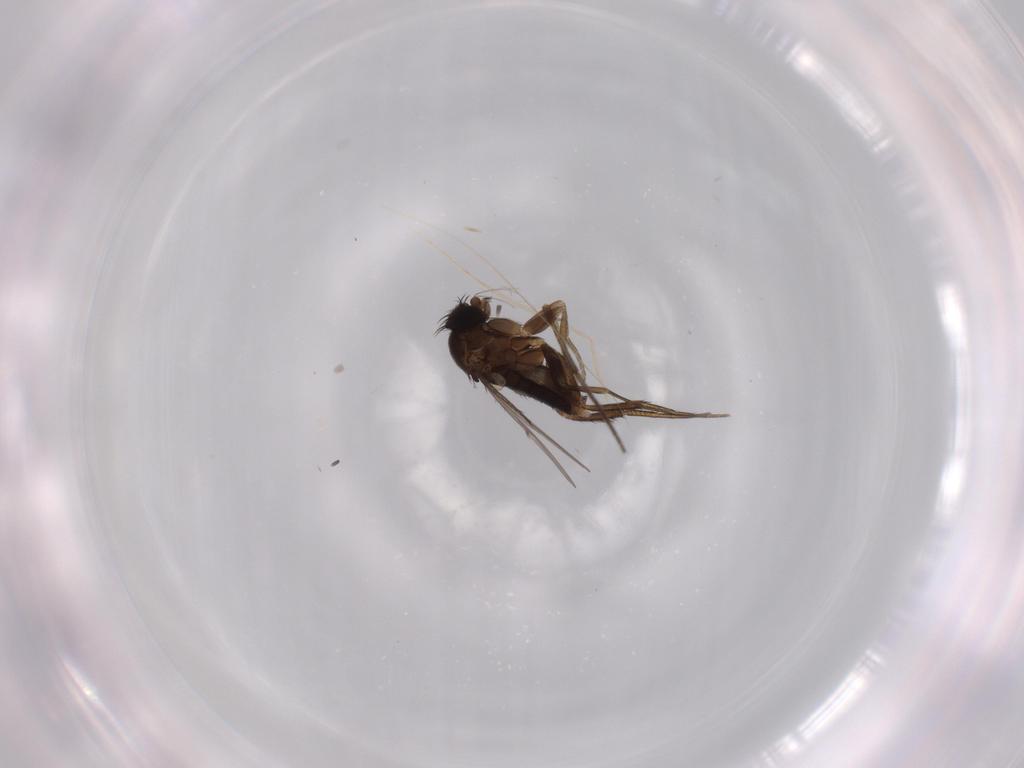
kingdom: Animalia
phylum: Arthropoda
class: Insecta
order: Diptera
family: Phoridae
